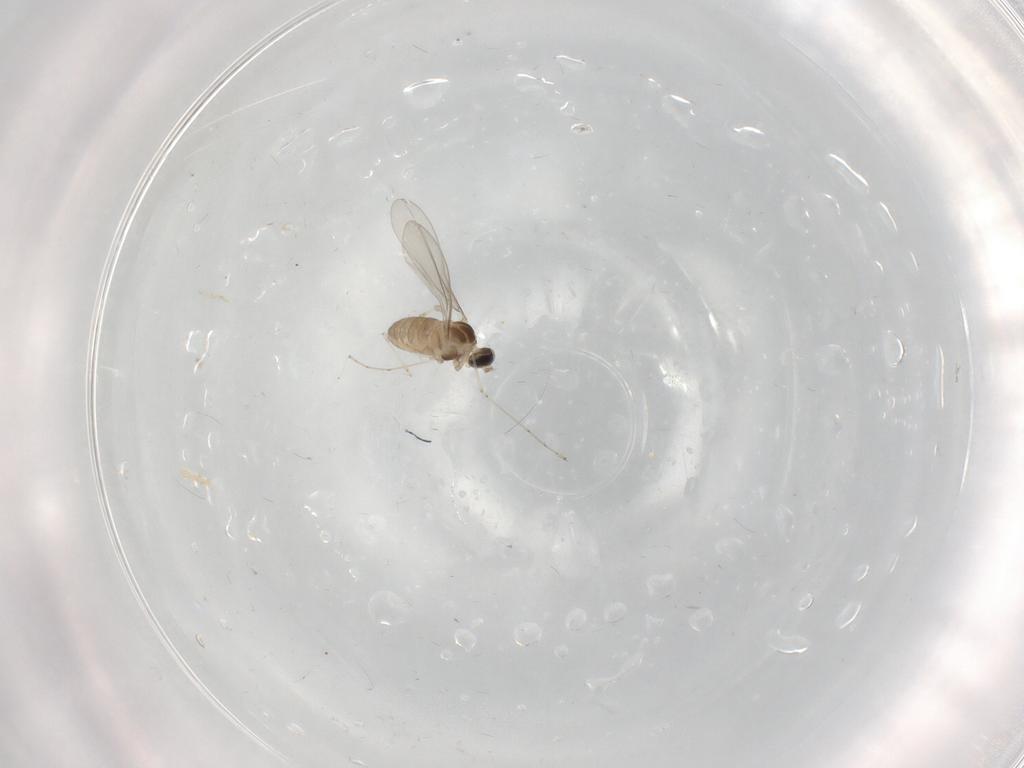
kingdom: Animalia
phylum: Arthropoda
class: Insecta
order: Diptera
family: Cecidomyiidae
